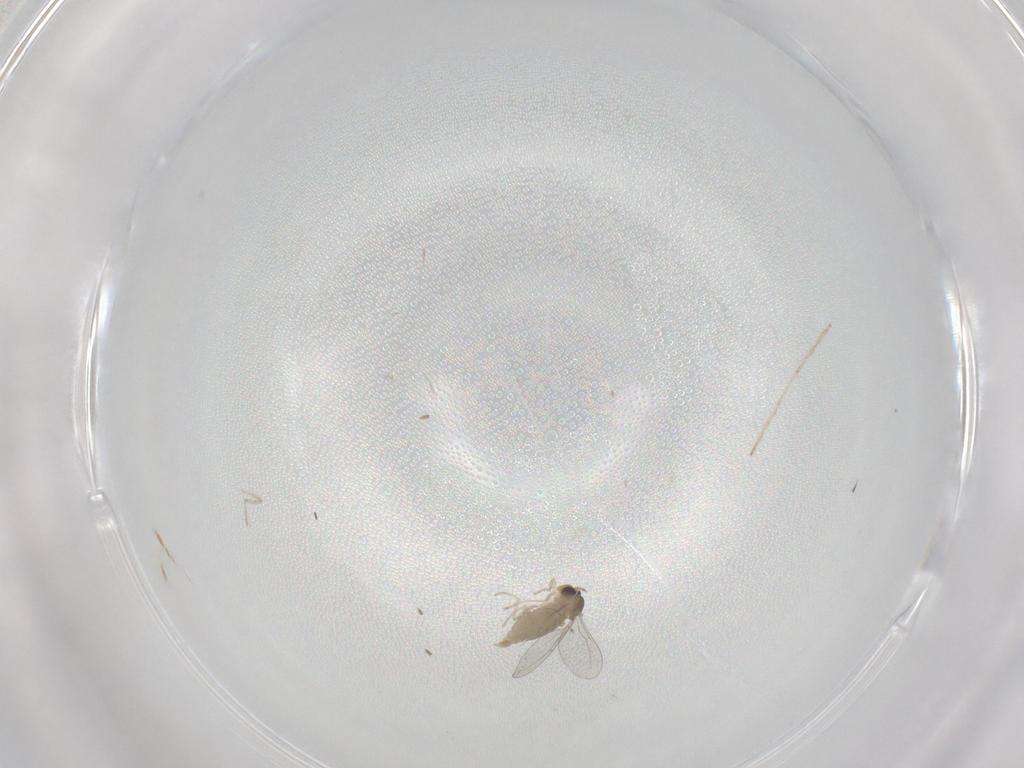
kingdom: Animalia
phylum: Arthropoda
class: Insecta
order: Diptera
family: Cecidomyiidae
